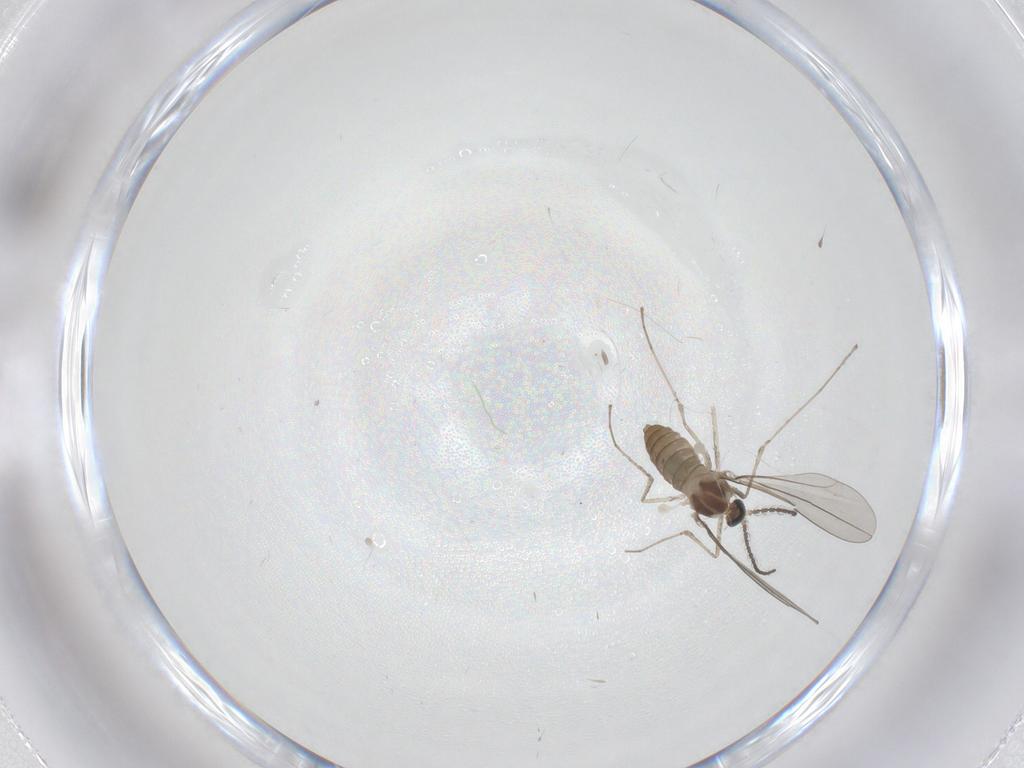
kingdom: Animalia
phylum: Arthropoda
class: Insecta
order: Diptera
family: Cecidomyiidae
